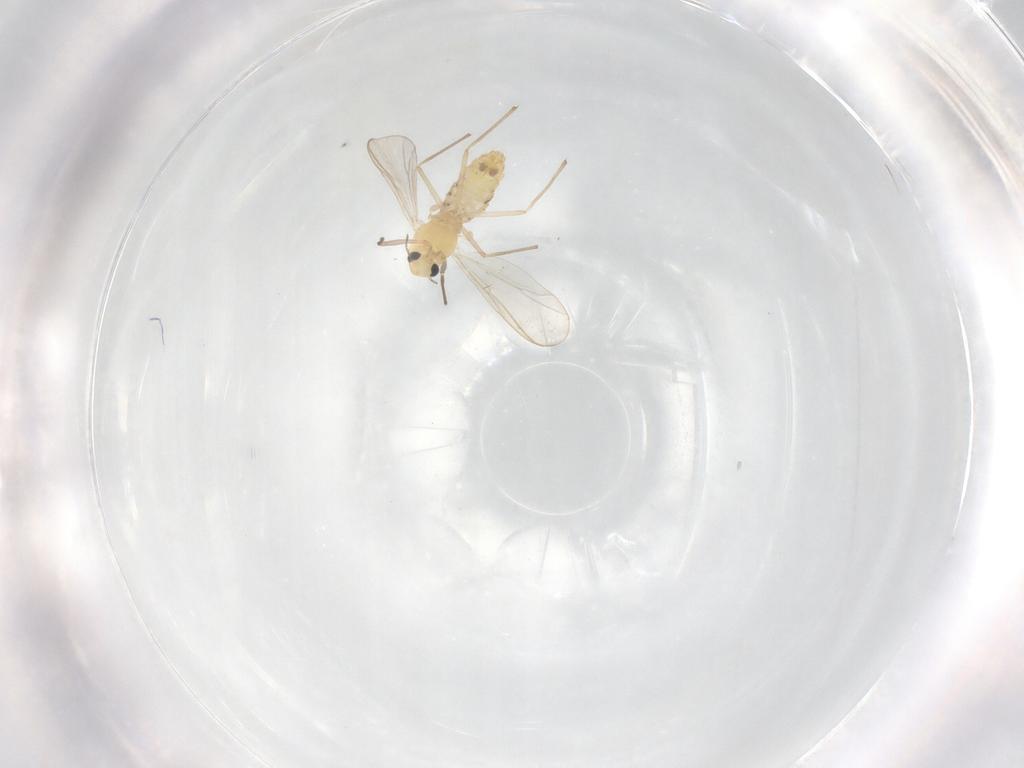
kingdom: Animalia
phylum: Arthropoda
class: Insecta
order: Diptera
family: Chironomidae
